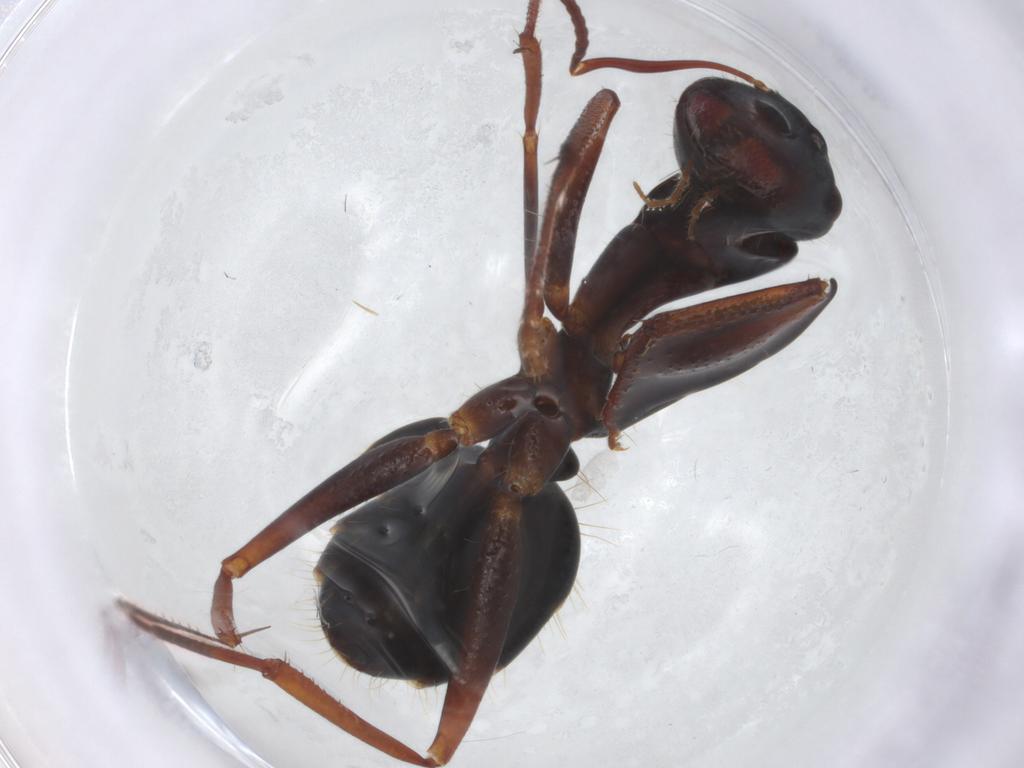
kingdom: Animalia
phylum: Arthropoda
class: Insecta
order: Hymenoptera
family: Formicidae
